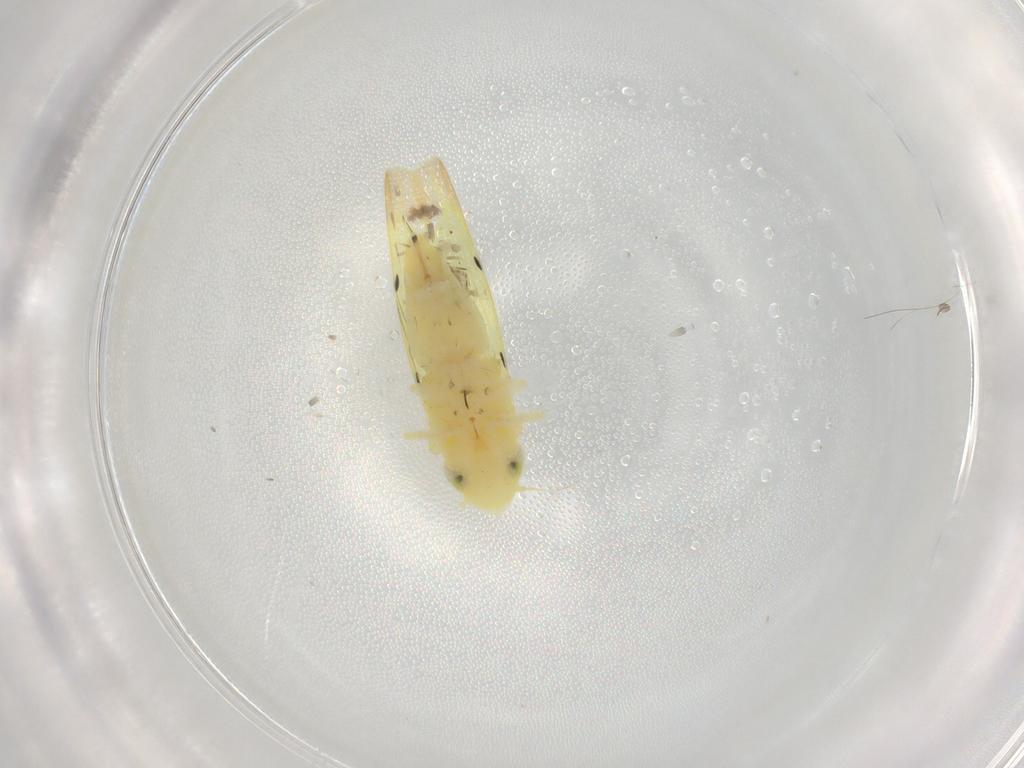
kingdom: Animalia
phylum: Arthropoda
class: Insecta
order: Hemiptera
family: Cicadellidae
